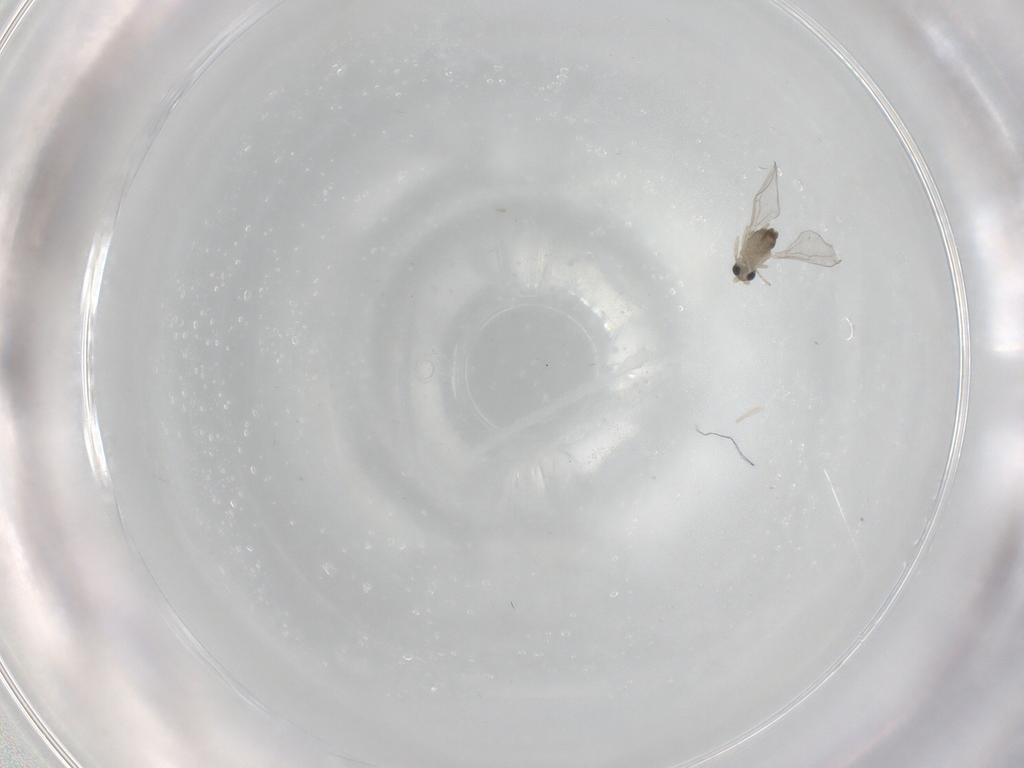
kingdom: Animalia
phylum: Arthropoda
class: Insecta
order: Diptera
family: Cecidomyiidae
